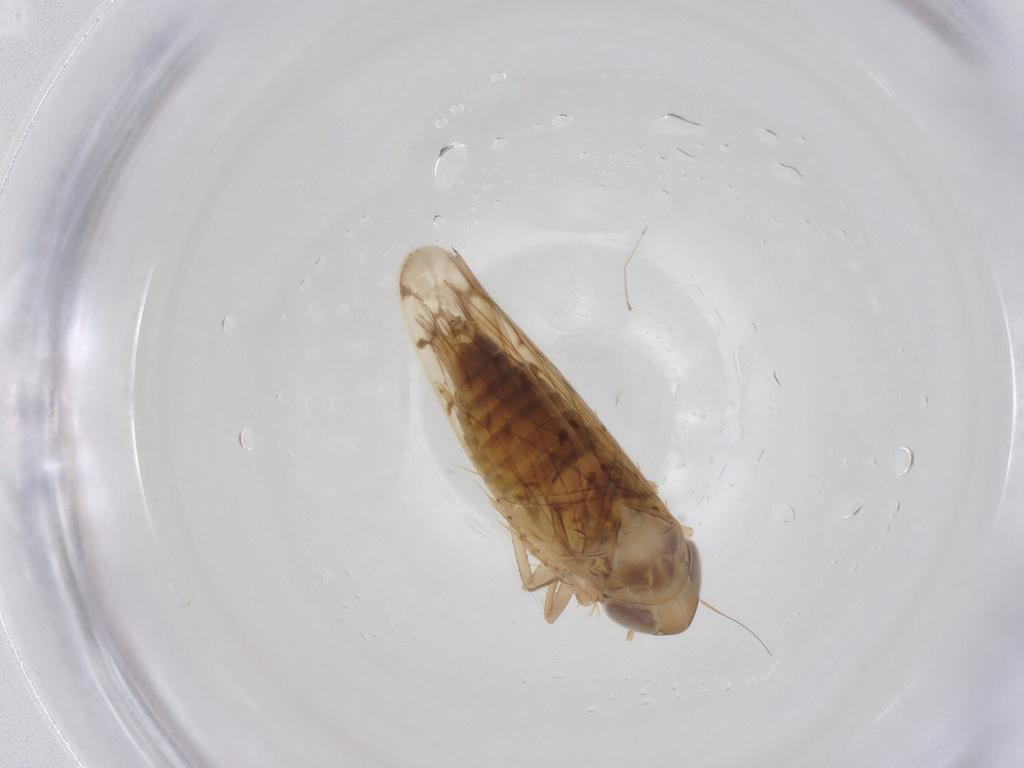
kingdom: Animalia
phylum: Arthropoda
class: Insecta
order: Hemiptera
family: Cicadellidae
